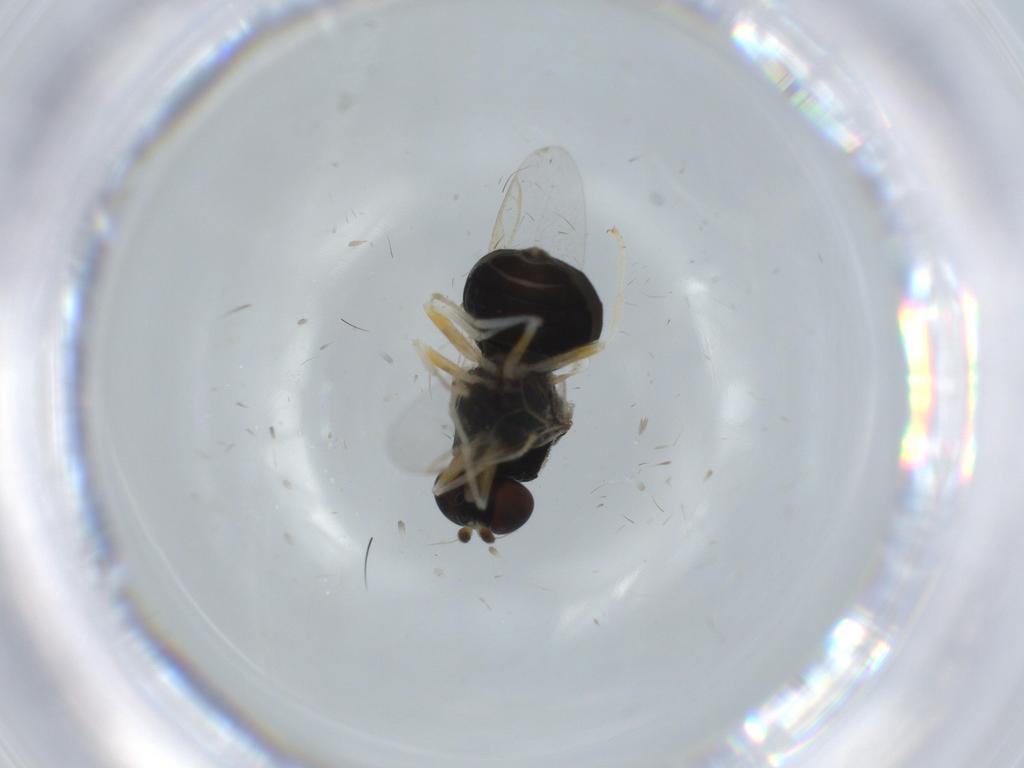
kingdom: Animalia
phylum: Arthropoda
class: Insecta
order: Diptera
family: Stratiomyidae
